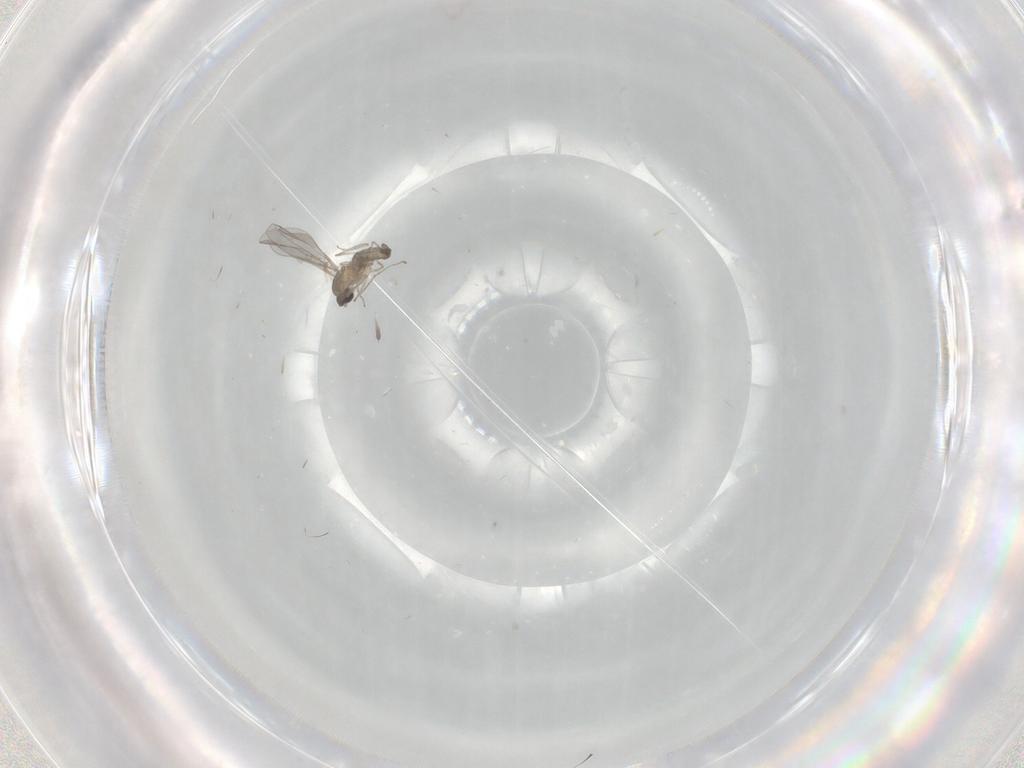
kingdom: Animalia
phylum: Arthropoda
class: Insecta
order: Diptera
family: Cecidomyiidae
